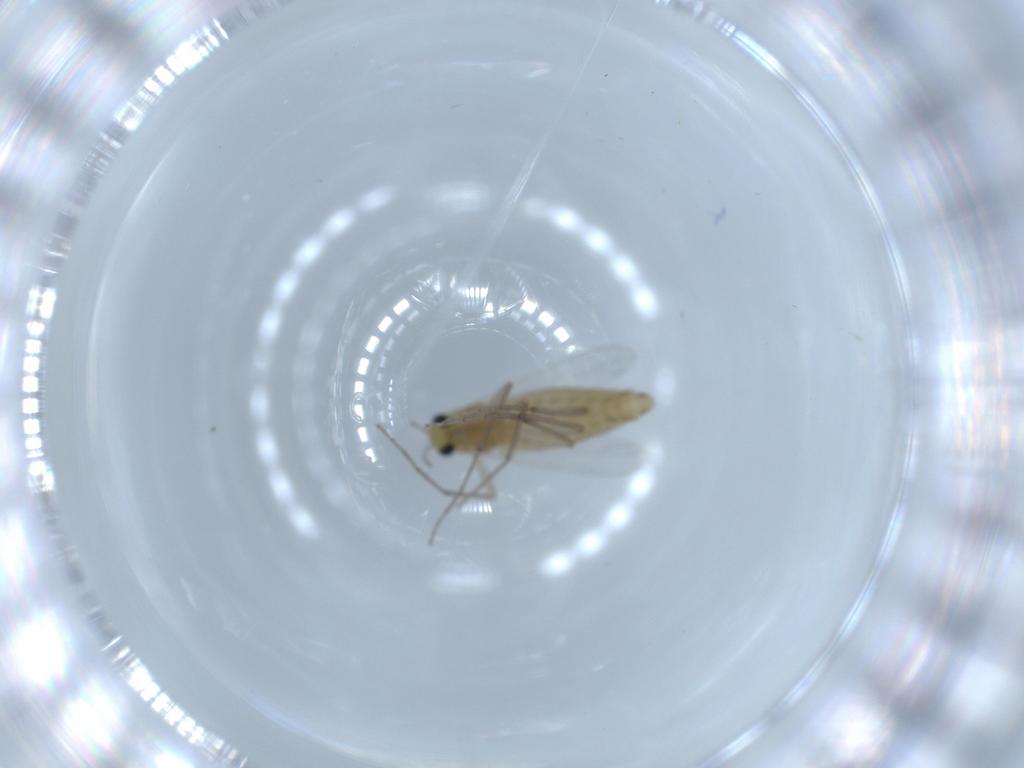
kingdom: Animalia
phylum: Arthropoda
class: Insecta
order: Diptera
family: Chironomidae
